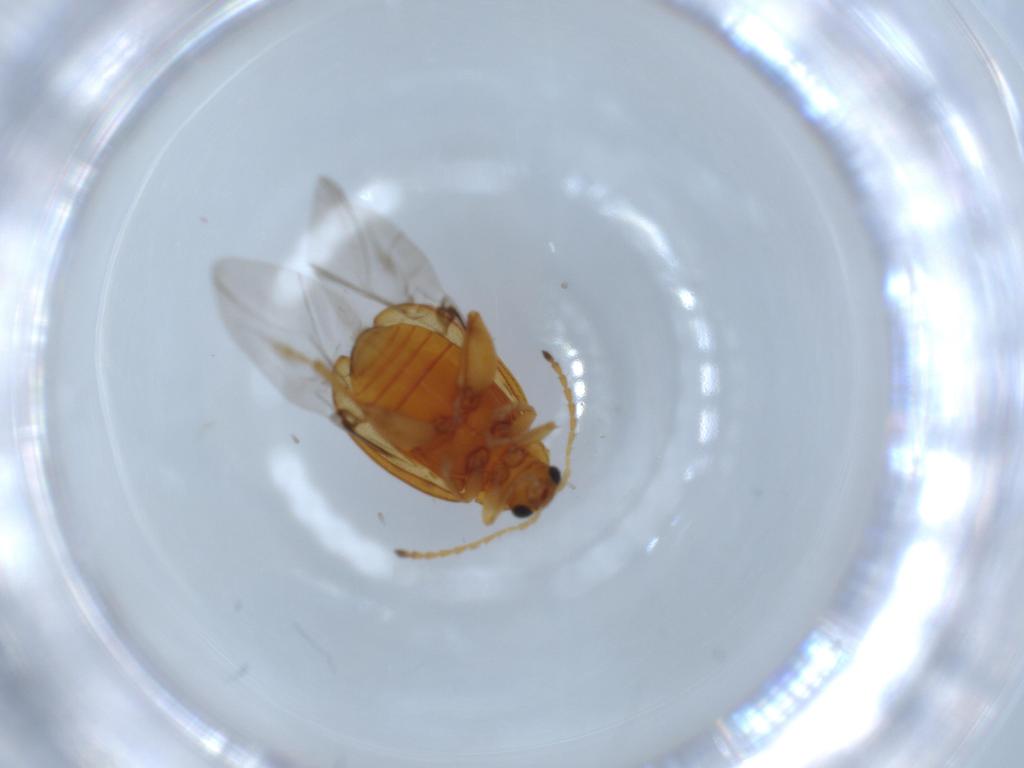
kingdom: Animalia
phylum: Arthropoda
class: Insecta
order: Coleoptera
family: Chrysomelidae
